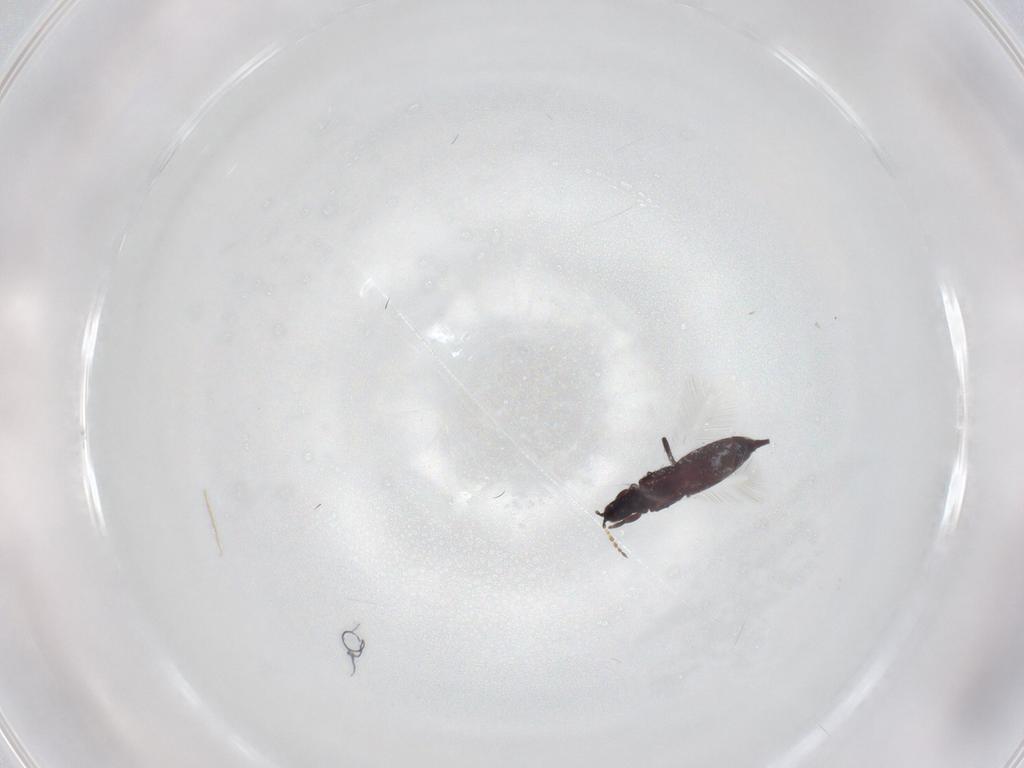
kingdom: Animalia
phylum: Arthropoda
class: Insecta
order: Thysanoptera
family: Phlaeothripidae
